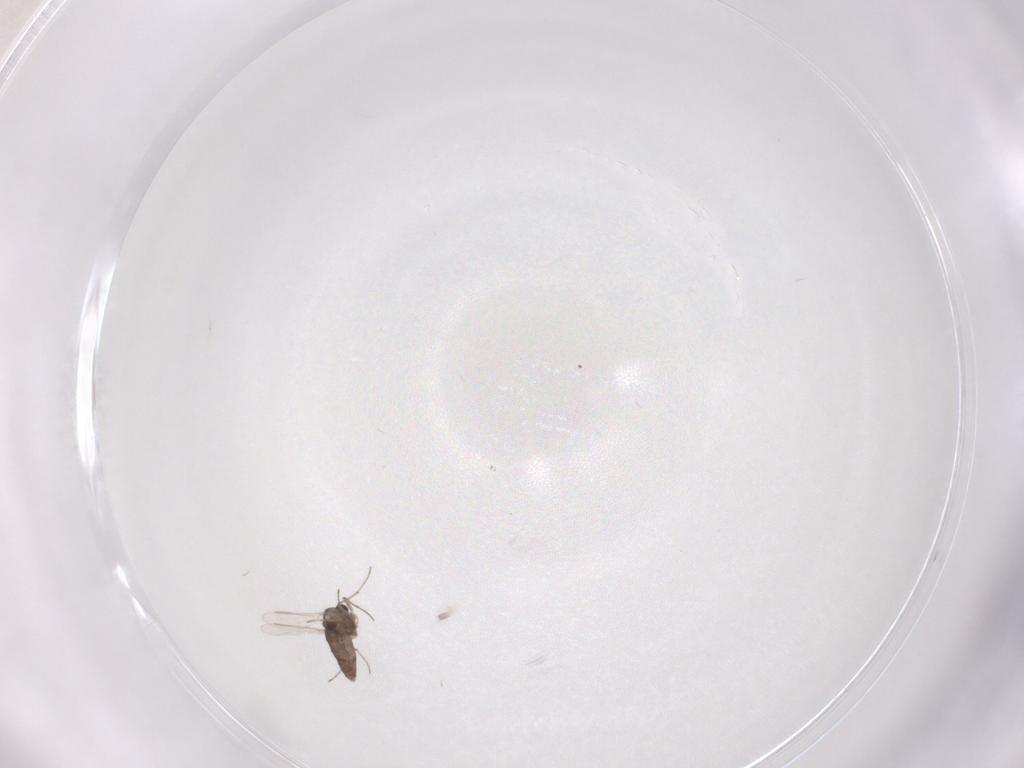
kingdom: Animalia
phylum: Arthropoda
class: Insecta
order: Diptera
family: Chironomidae
